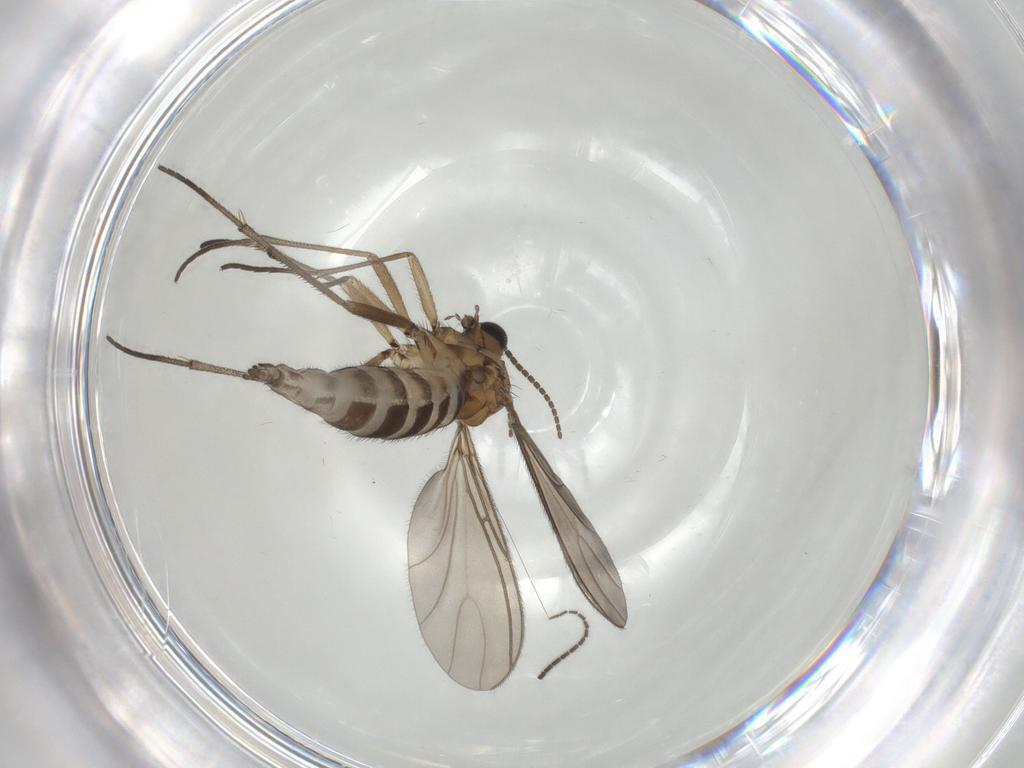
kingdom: Animalia
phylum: Arthropoda
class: Insecta
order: Diptera
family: Sciaridae
